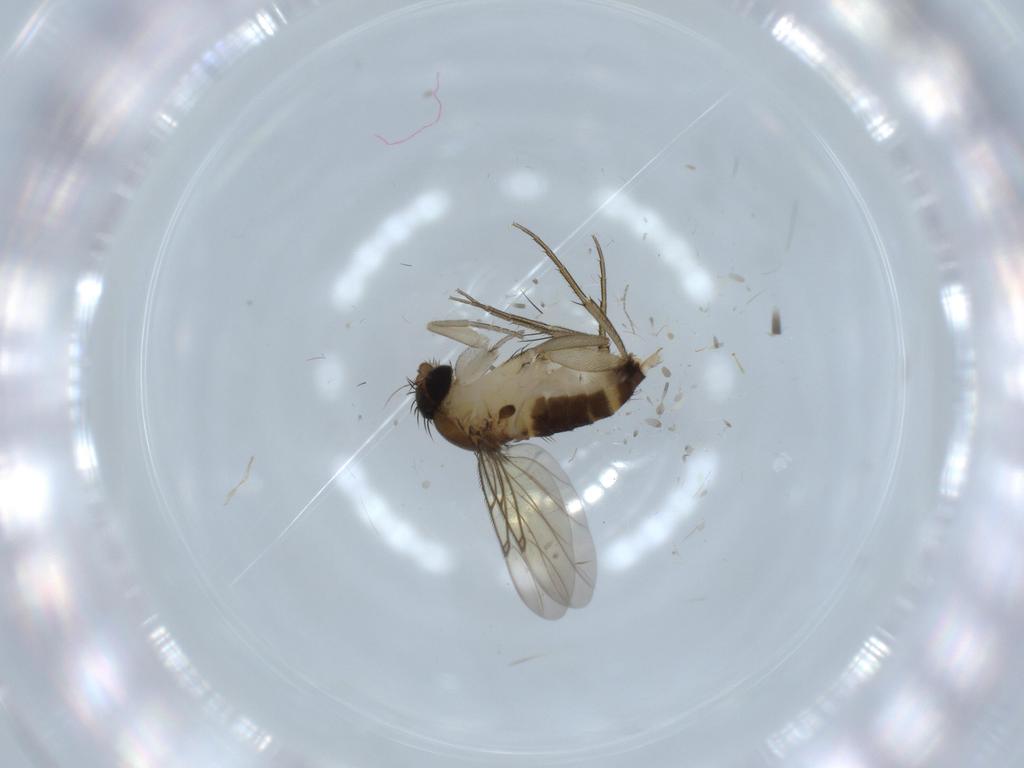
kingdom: Animalia
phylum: Arthropoda
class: Insecta
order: Diptera
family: Cecidomyiidae
